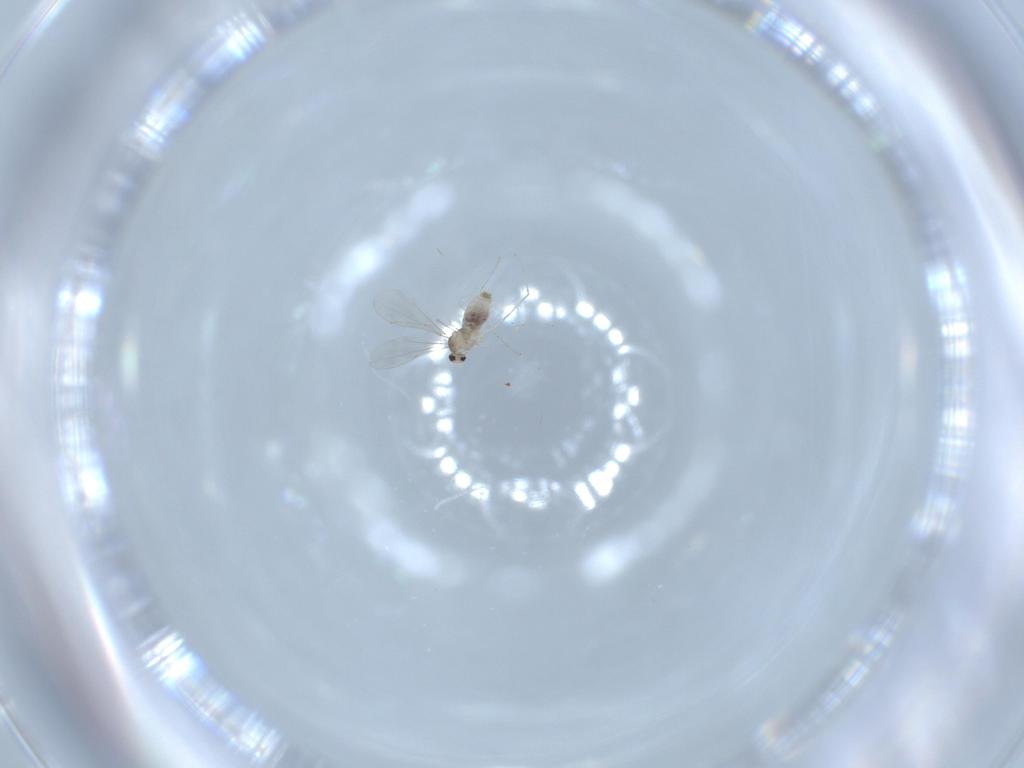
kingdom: Animalia
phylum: Arthropoda
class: Insecta
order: Diptera
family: Cecidomyiidae
